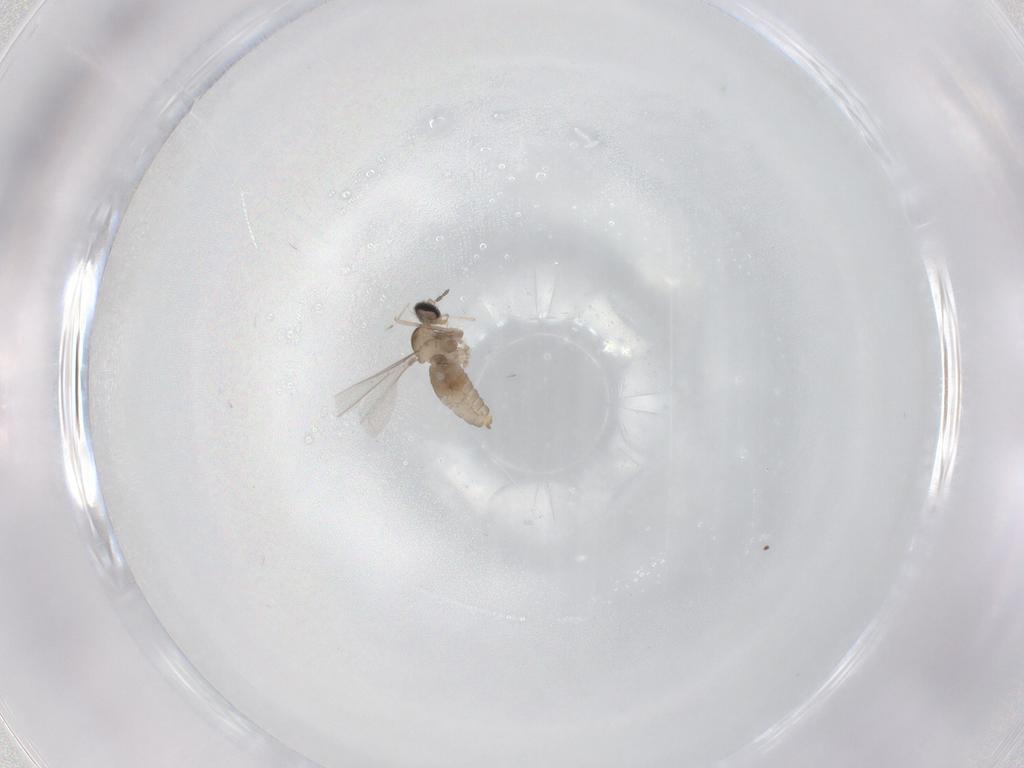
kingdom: Animalia
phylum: Arthropoda
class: Insecta
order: Diptera
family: Cecidomyiidae
